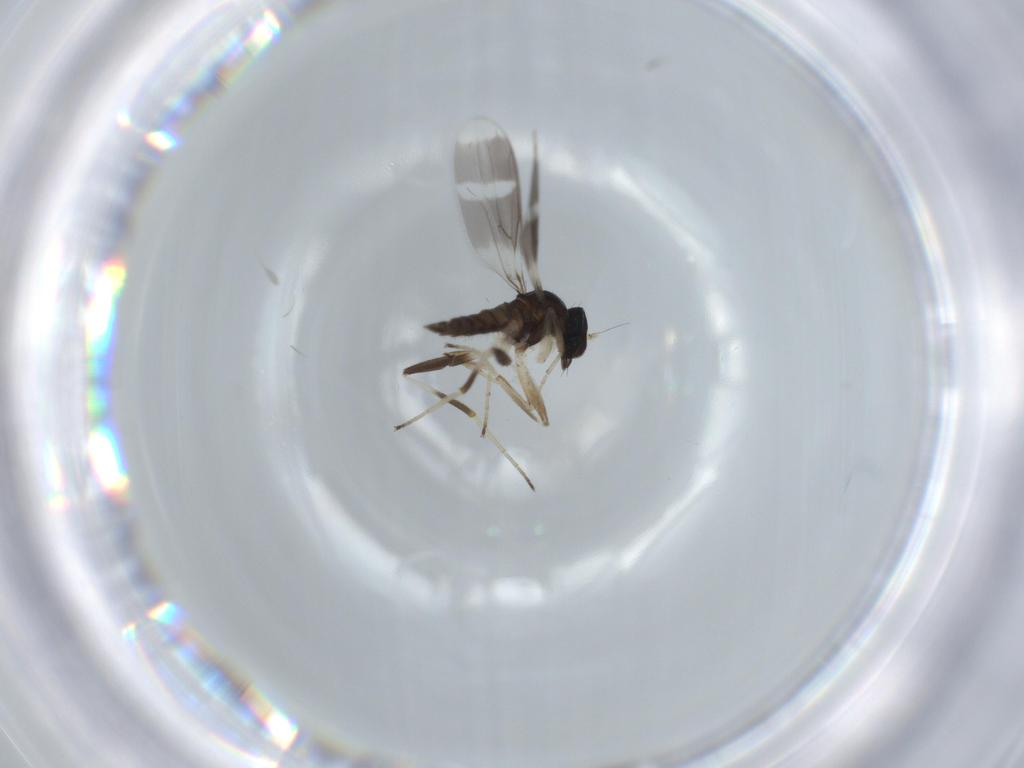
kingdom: Animalia
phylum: Arthropoda
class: Insecta
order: Diptera
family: Hybotidae
